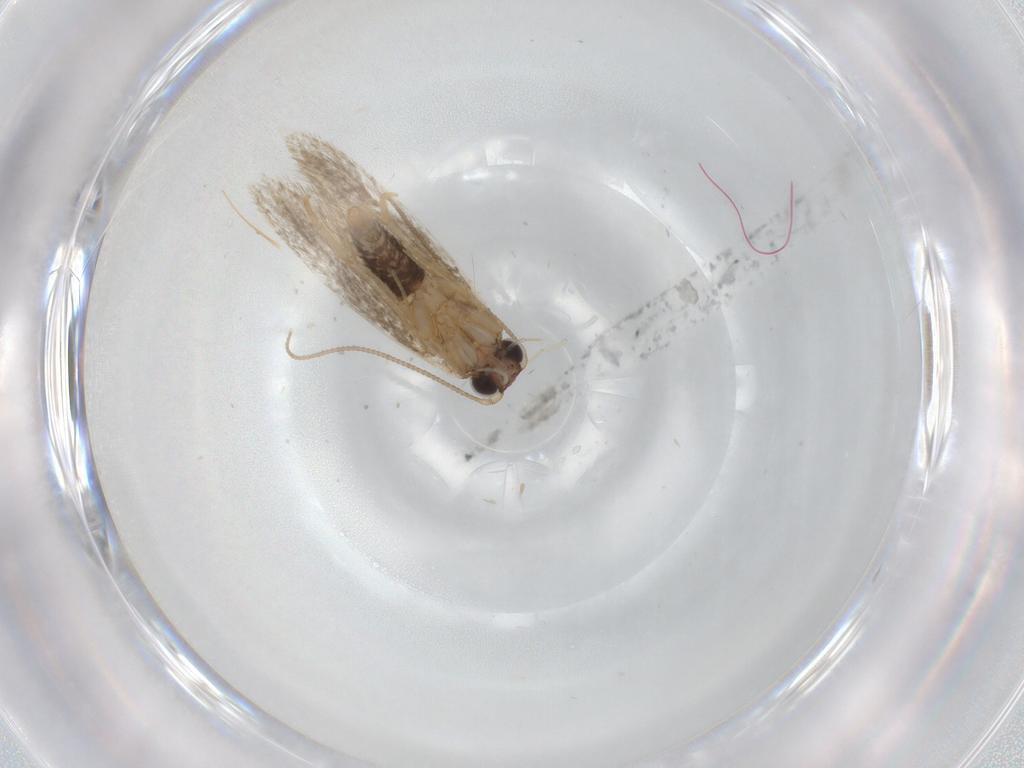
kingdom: Animalia
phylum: Arthropoda
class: Insecta
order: Lepidoptera
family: Tineidae
